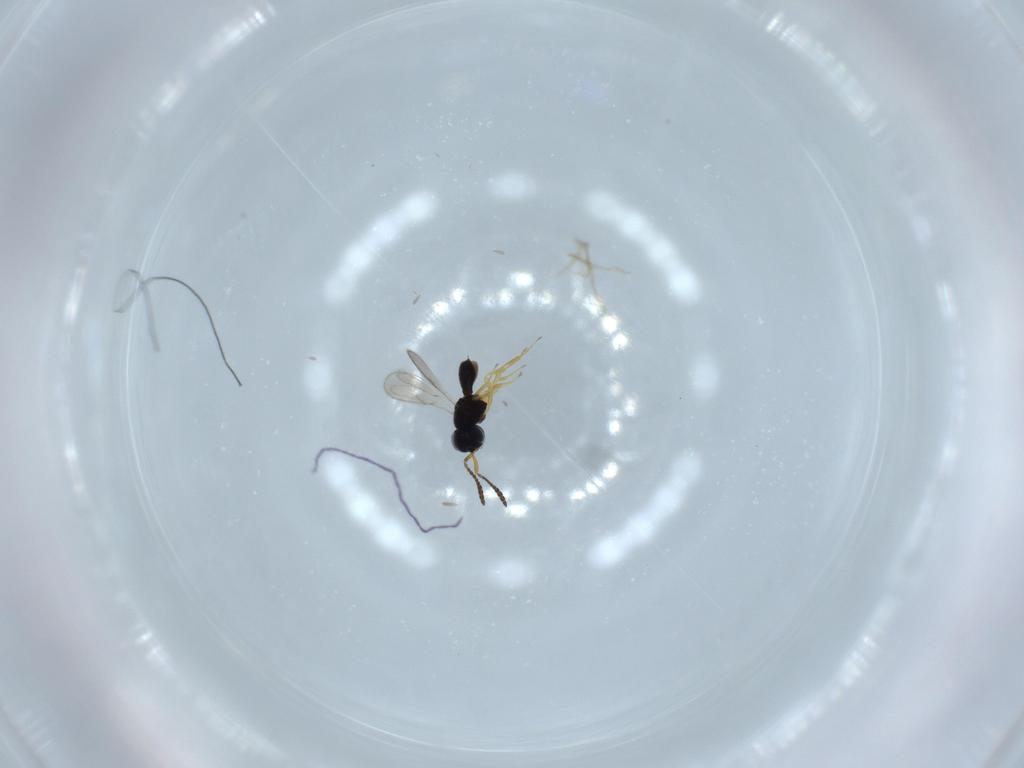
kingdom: Animalia
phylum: Arthropoda
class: Insecta
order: Hymenoptera
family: Scelionidae
